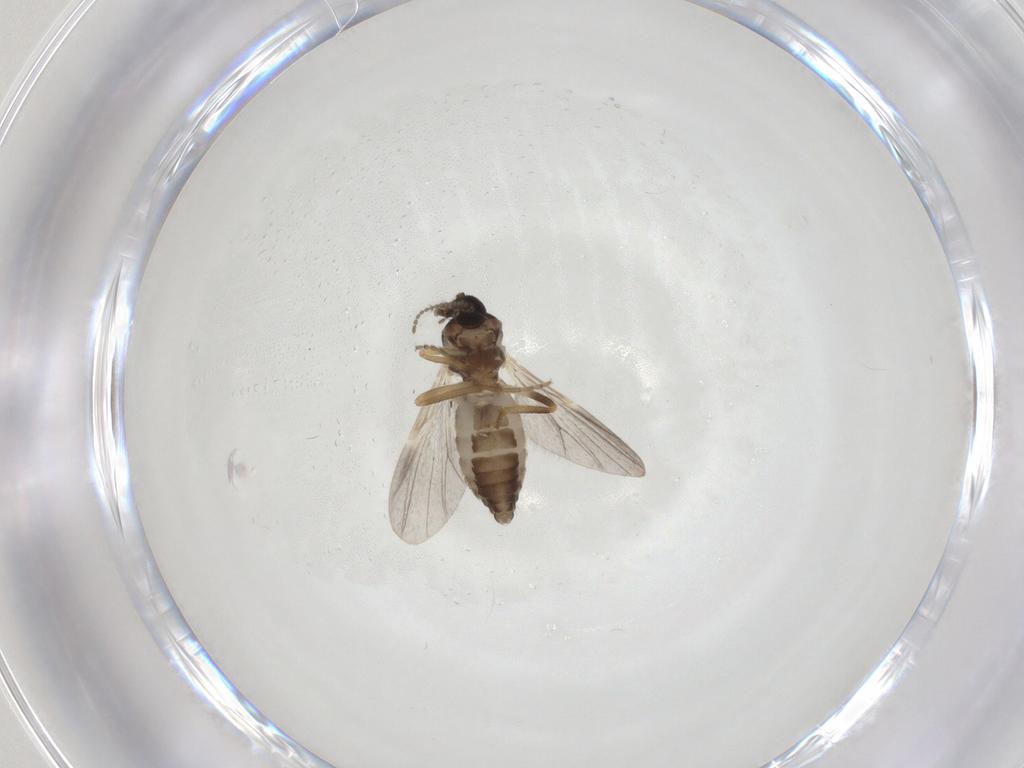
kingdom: Animalia
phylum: Arthropoda
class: Insecta
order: Diptera
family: Ceratopogonidae
